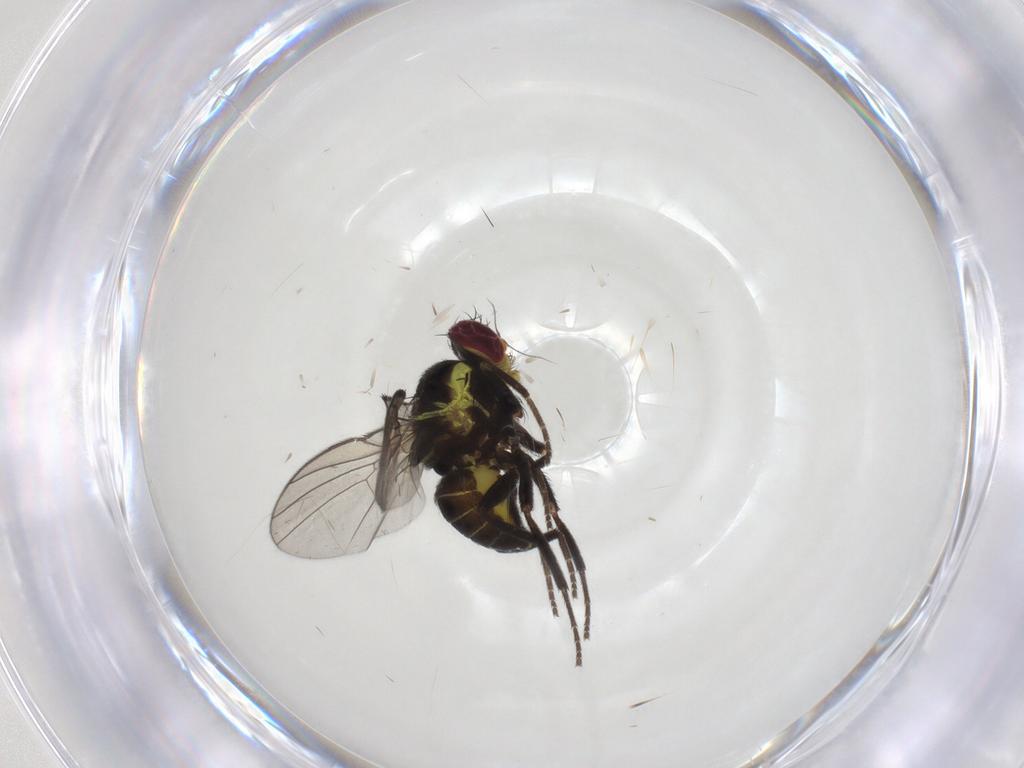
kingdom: Animalia
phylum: Arthropoda
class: Insecta
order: Diptera
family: Agromyzidae
